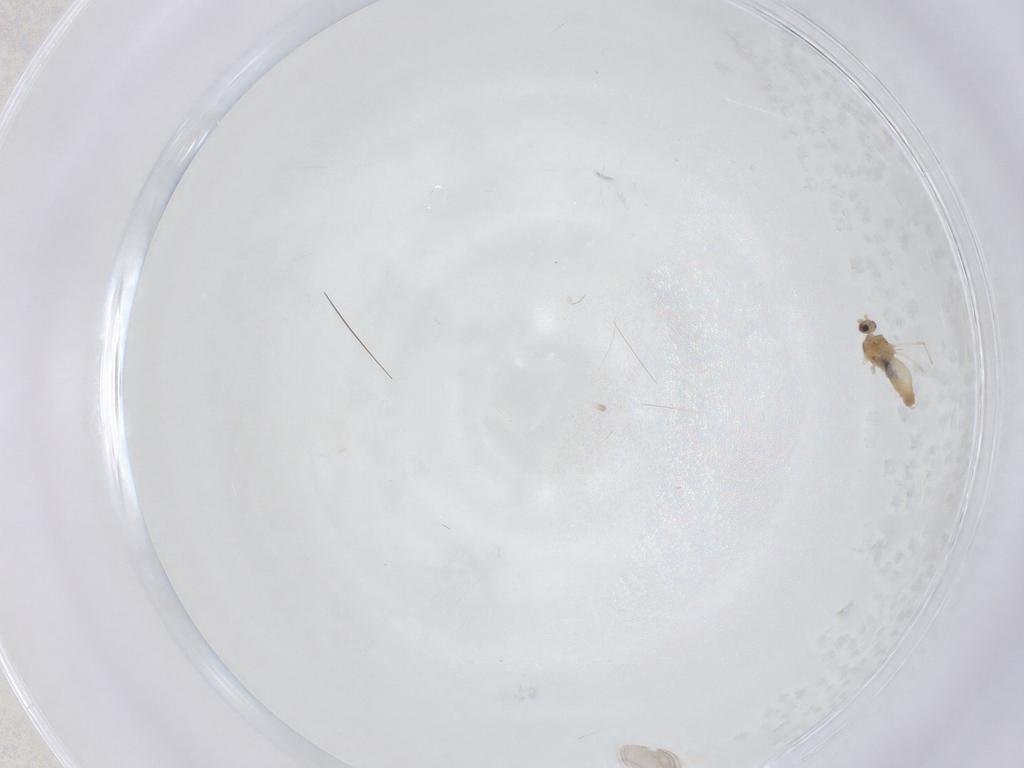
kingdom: Animalia
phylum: Arthropoda
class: Insecta
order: Diptera
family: Cecidomyiidae
